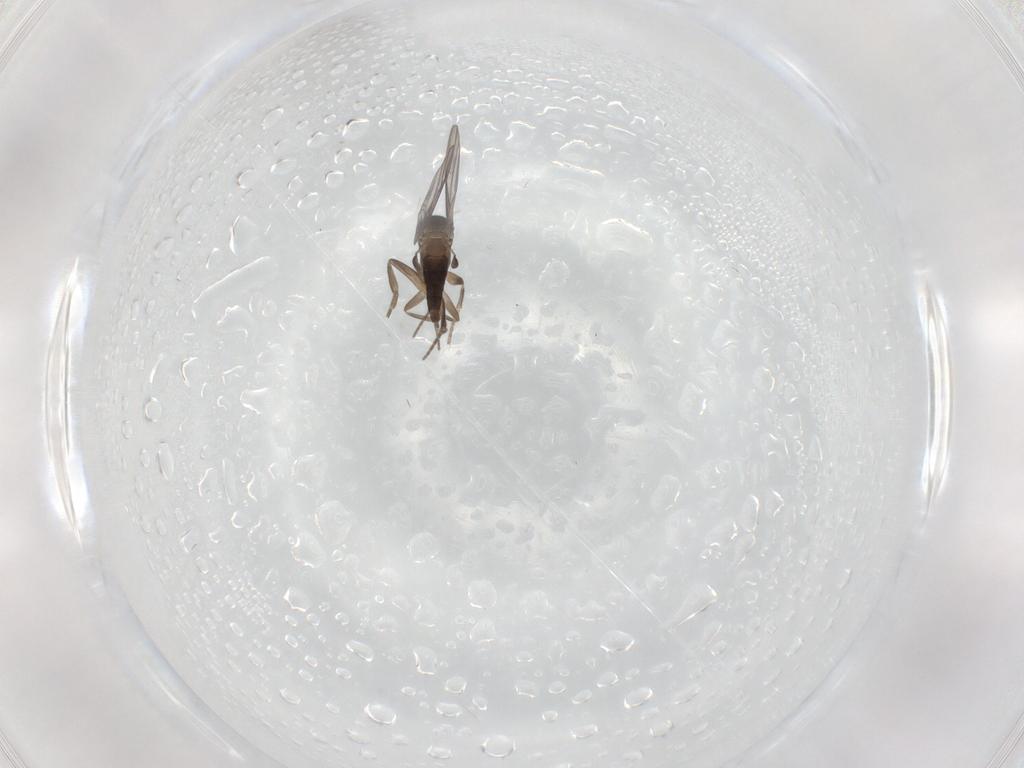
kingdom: Animalia
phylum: Arthropoda
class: Insecta
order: Diptera
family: Phoridae
